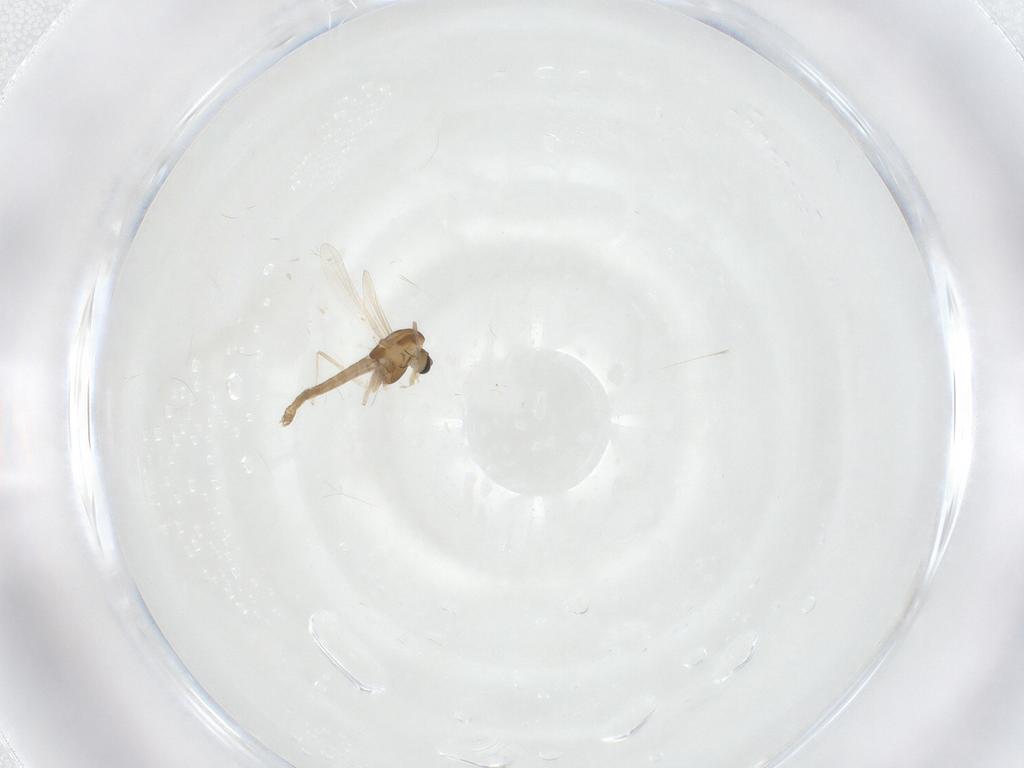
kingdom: Animalia
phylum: Arthropoda
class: Insecta
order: Diptera
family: Chironomidae
